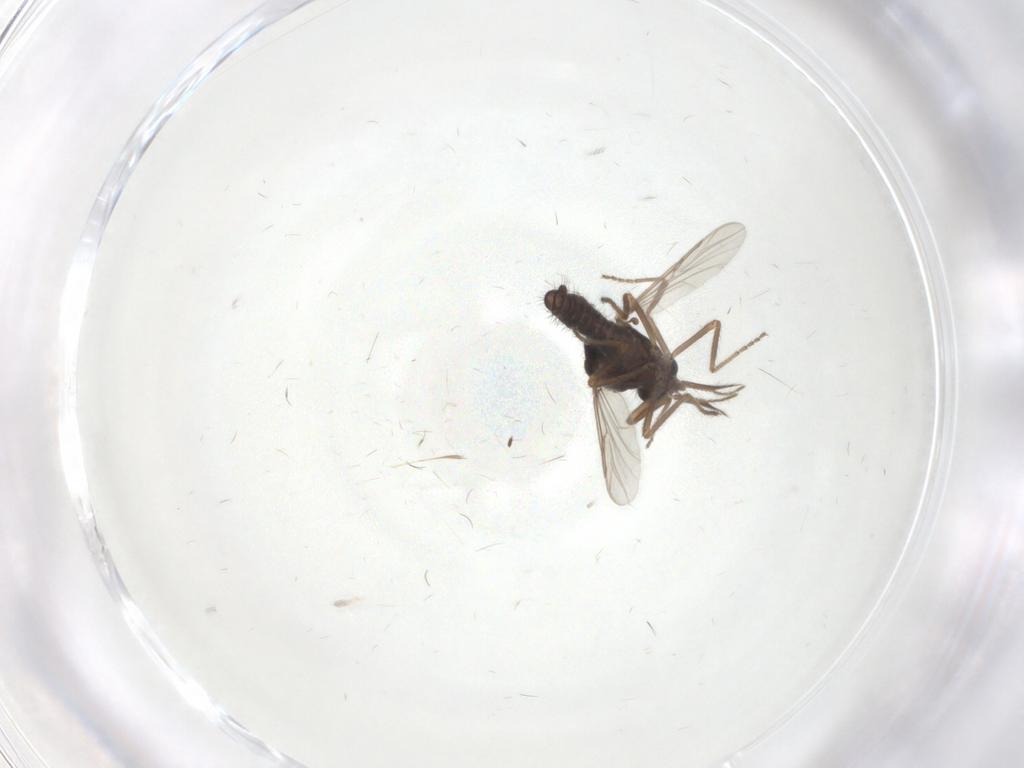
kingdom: Animalia
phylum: Arthropoda
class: Insecta
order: Diptera
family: Ceratopogonidae
